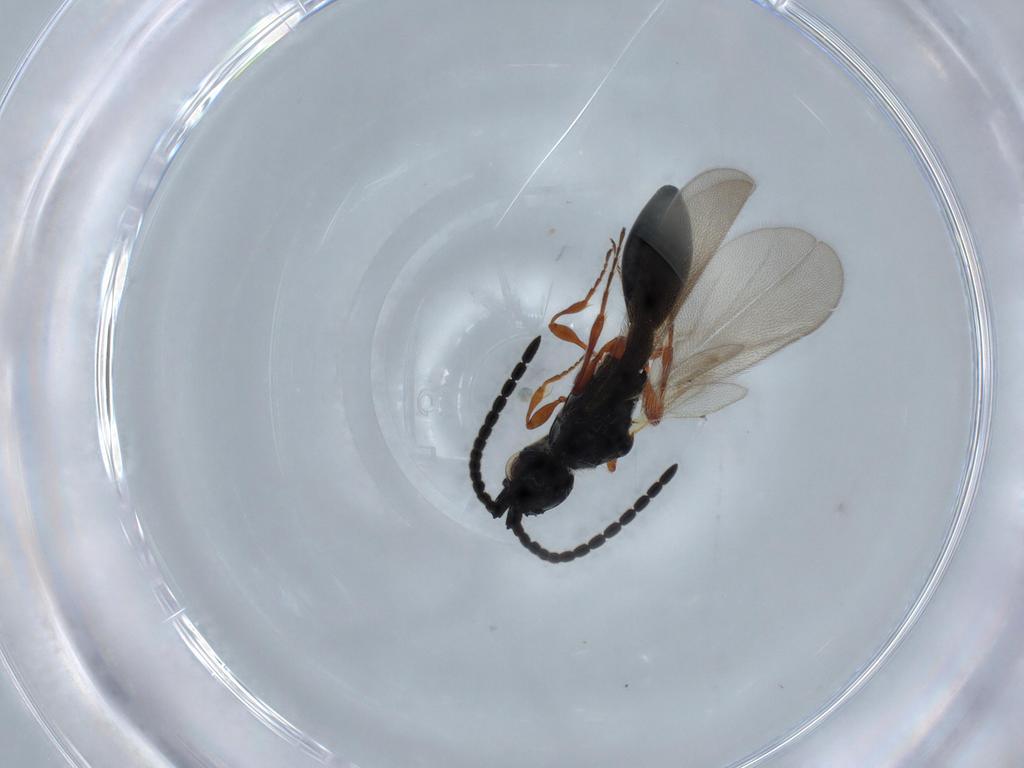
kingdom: Animalia
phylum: Arthropoda
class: Insecta
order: Hymenoptera
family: Diapriidae
